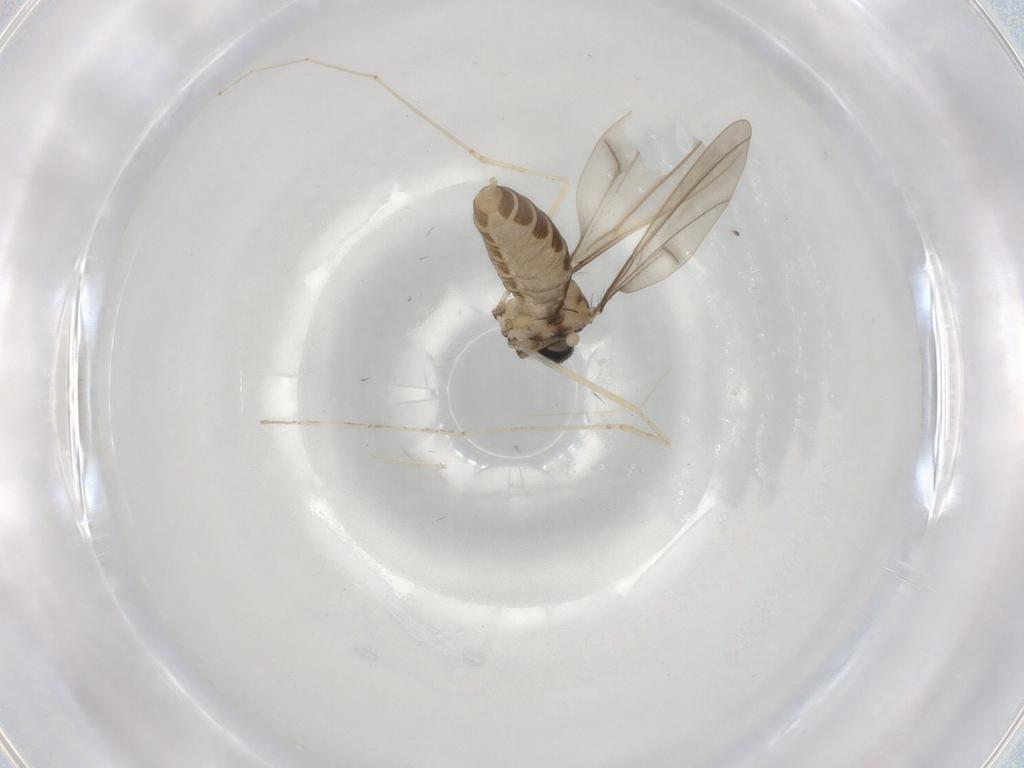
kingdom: Animalia
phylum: Arthropoda
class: Insecta
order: Diptera
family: Cecidomyiidae
